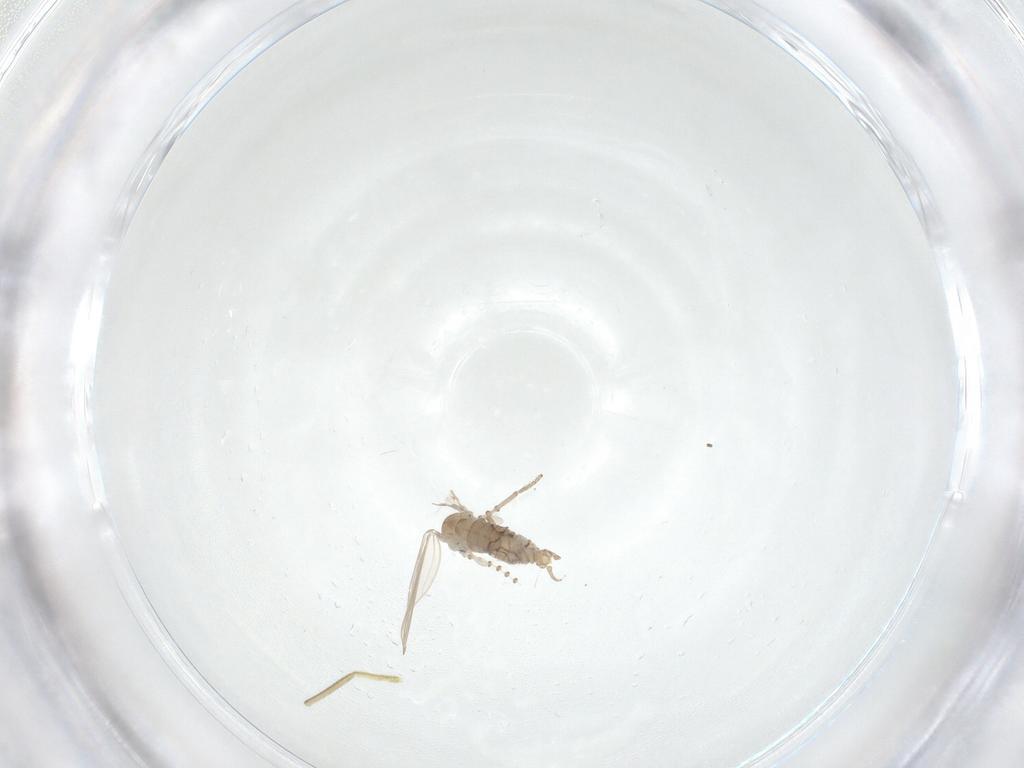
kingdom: Animalia
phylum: Arthropoda
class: Insecta
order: Diptera
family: Psychodidae
